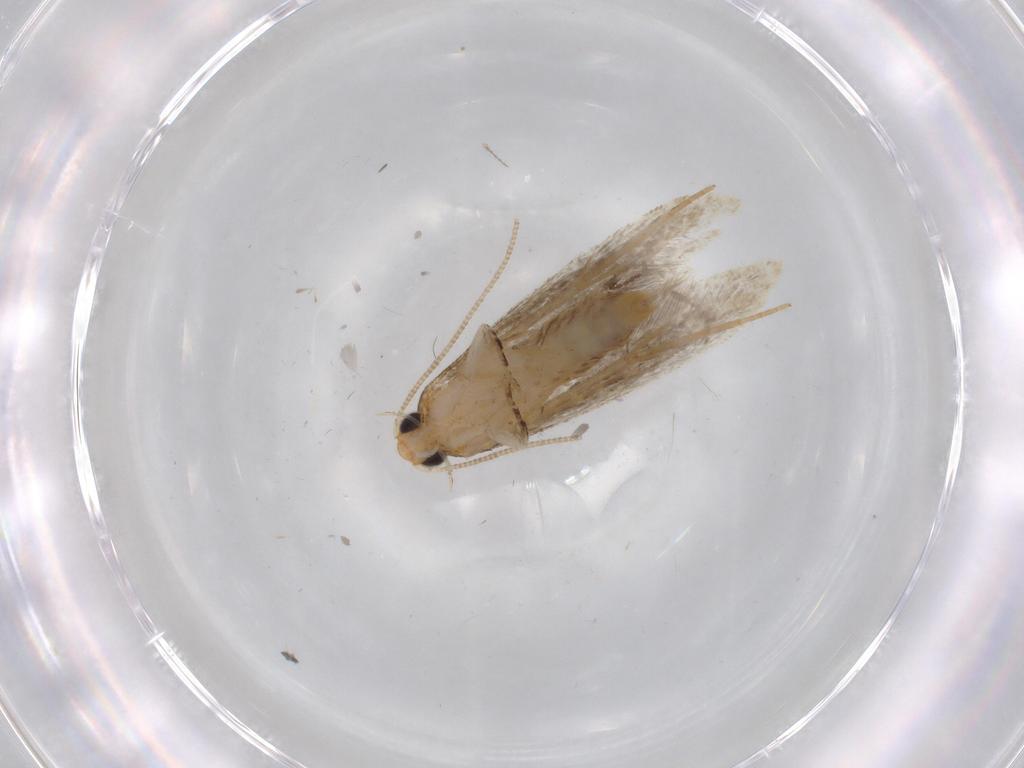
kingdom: Animalia
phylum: Arthropoda
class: Insecta
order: Lepidoptera
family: Tineidae
